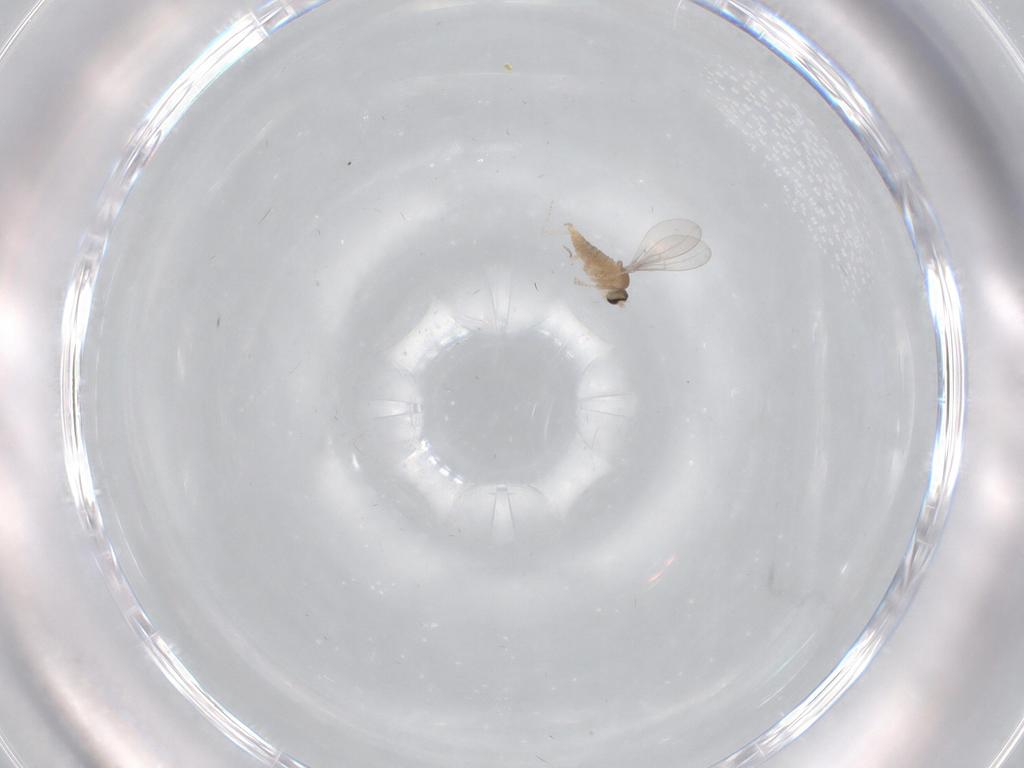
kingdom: Animalia
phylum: Arthropoda
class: Insecta
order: Diptera
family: Cecidomyiidae
